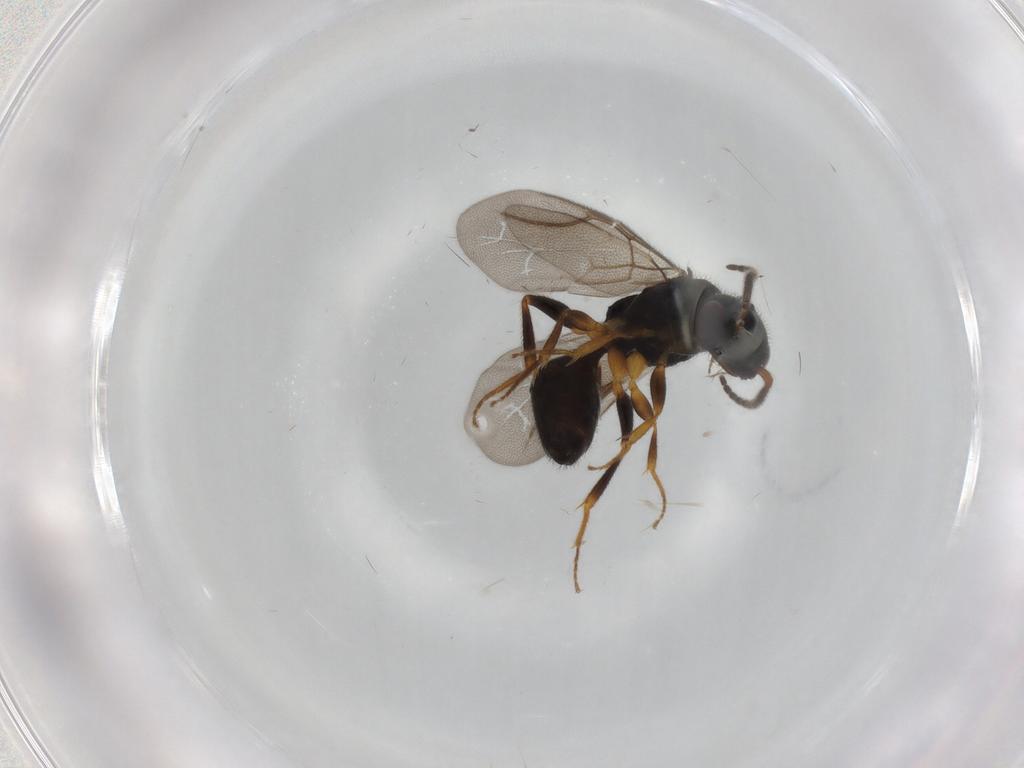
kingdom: Animalia
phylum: Arthropoda
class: Insecta
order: Hymenoptera
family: Bethylidae
